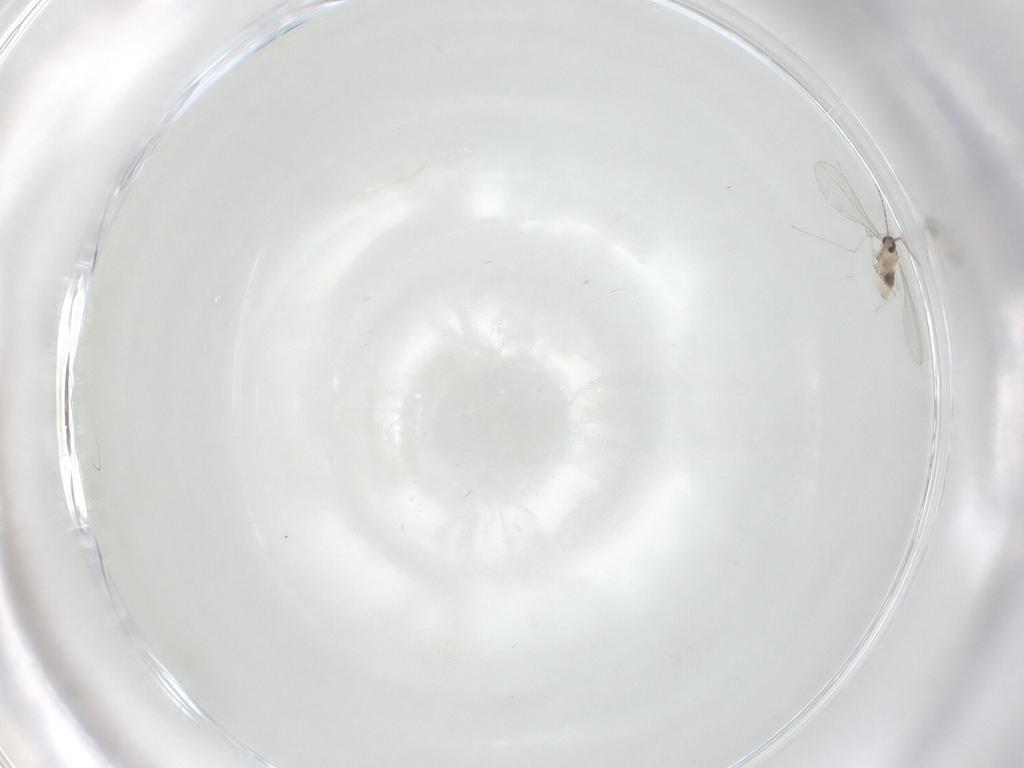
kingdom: Animalia
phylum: Arthropoda
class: Insecta
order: Diptera
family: Cecidomyiidae
